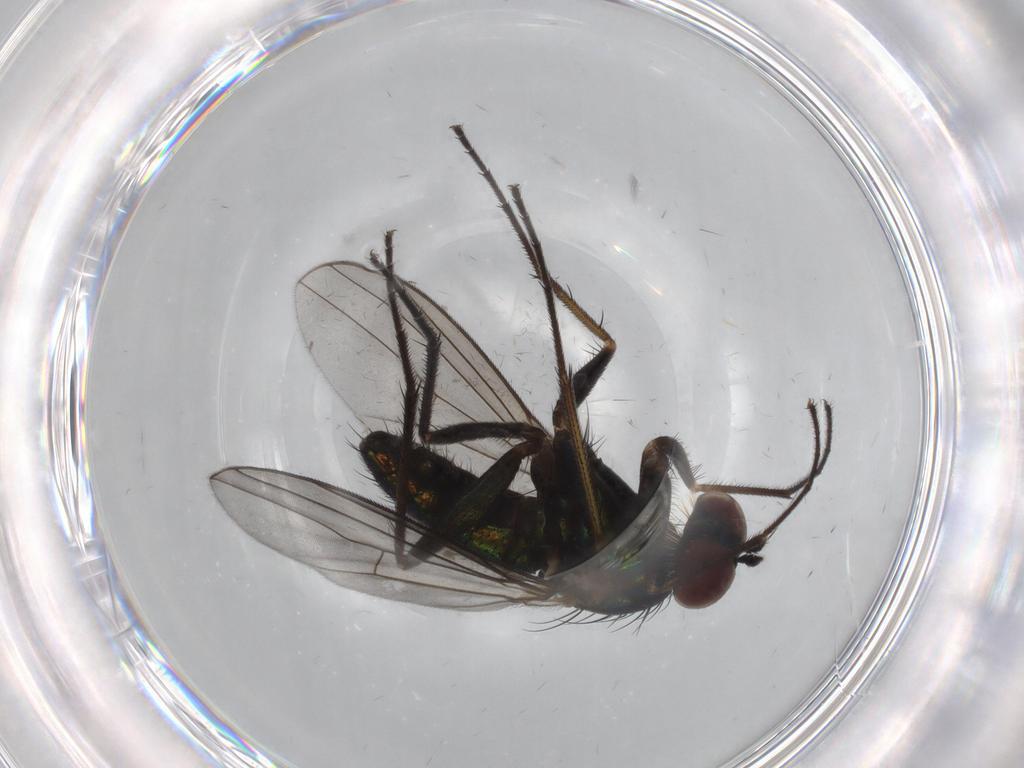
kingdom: Animalia
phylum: Arthropoda
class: Insecta
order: Diptera
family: Dolichopodidae
